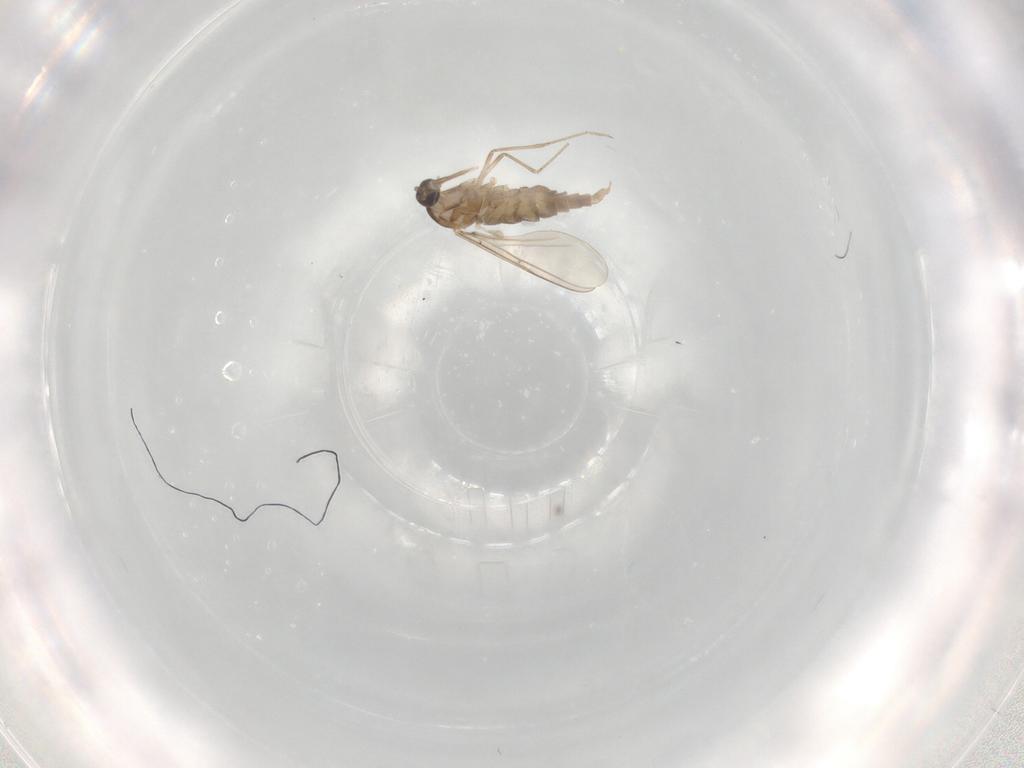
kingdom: Animalia
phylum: Arthropoda
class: Insecta
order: Diptera
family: Cecidomyiidae
